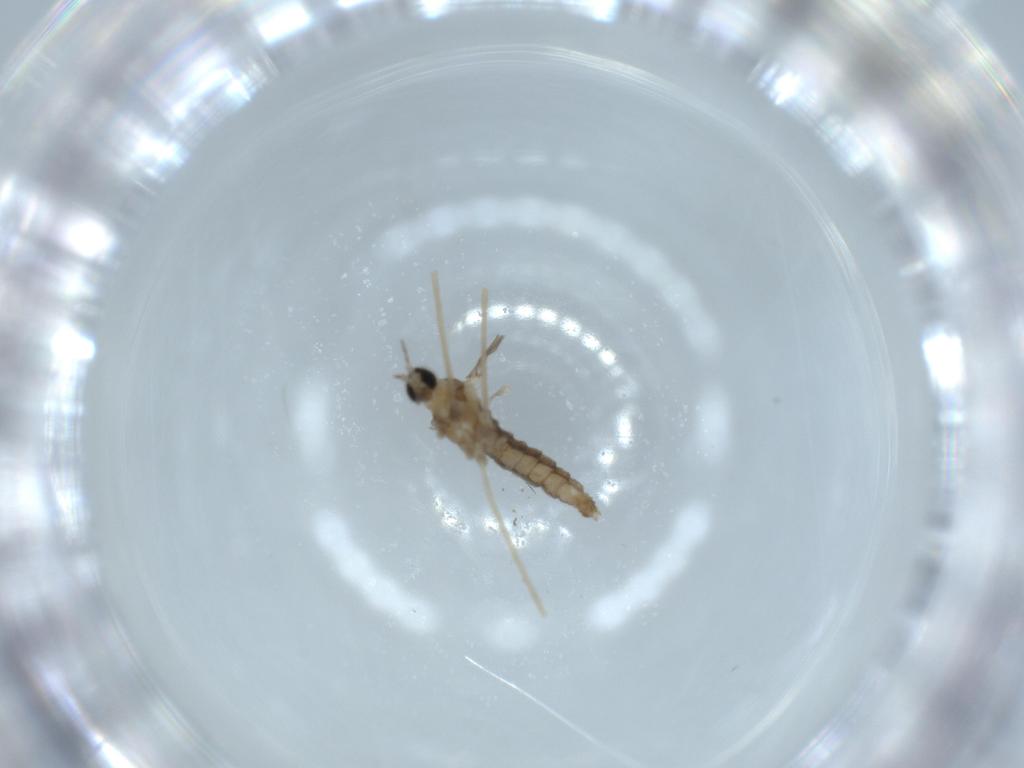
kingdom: Animalia
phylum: Arthropoda
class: Insecta
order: Diptera
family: Cecidomyiidae
